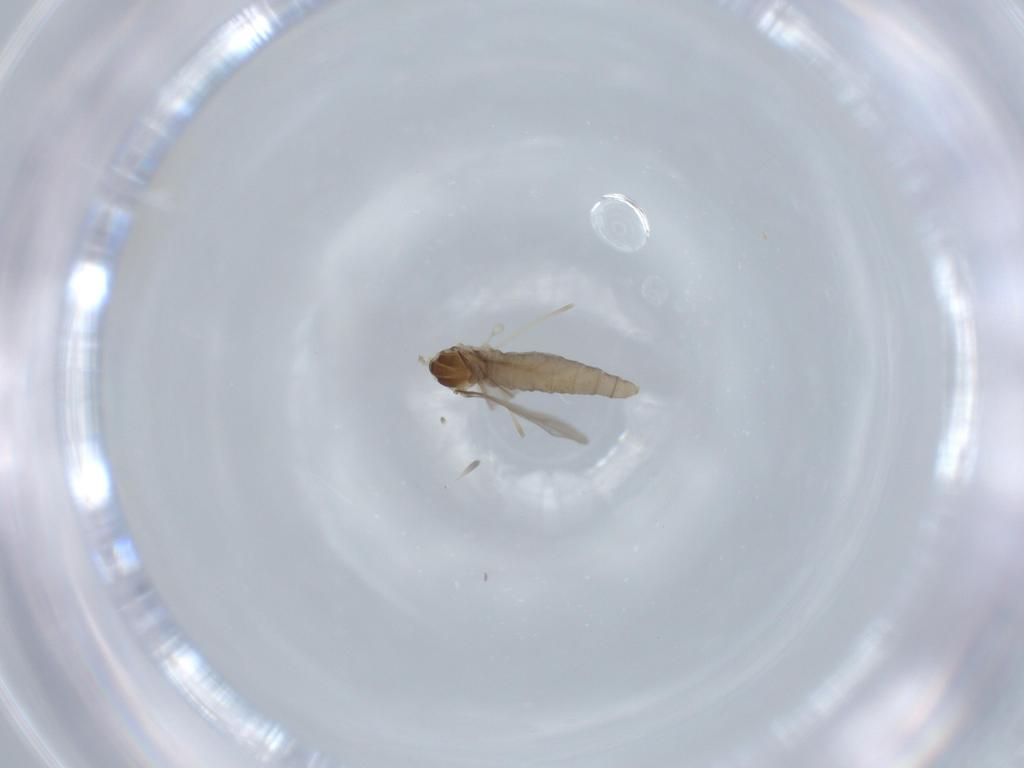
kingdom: Animalia
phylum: Arthropoda
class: Insecta
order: Diptera
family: Cecidomyiidae
